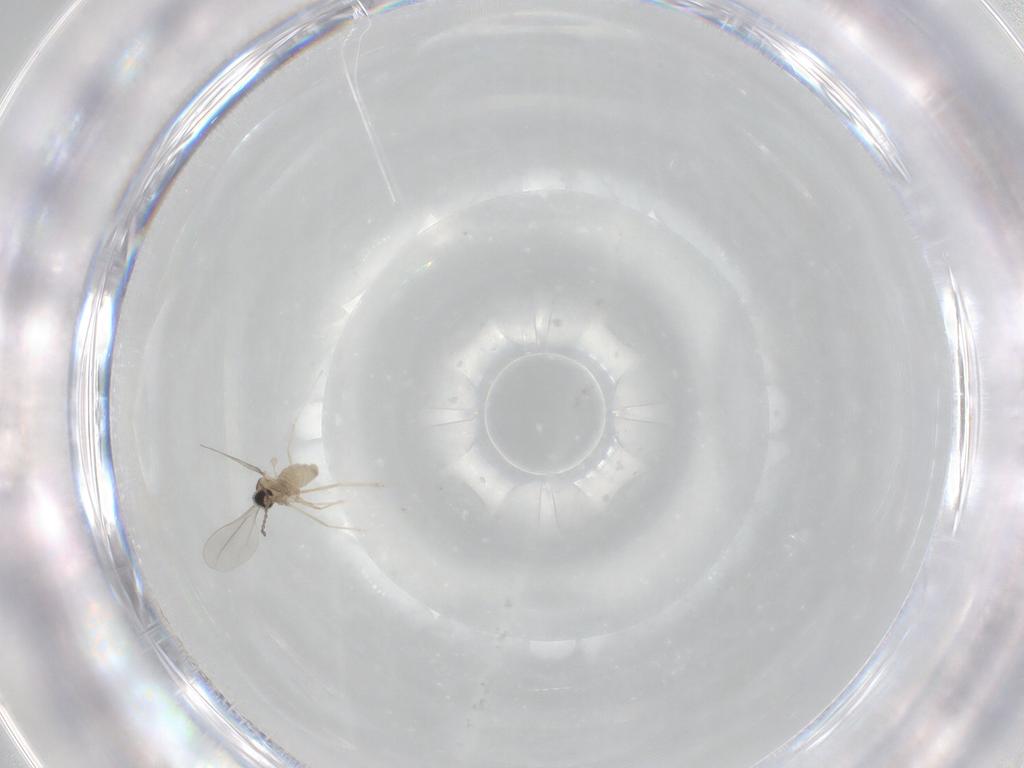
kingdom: Animalia
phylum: Arthropoda
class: Insecta
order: Diptera
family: Cecidomyiidae
